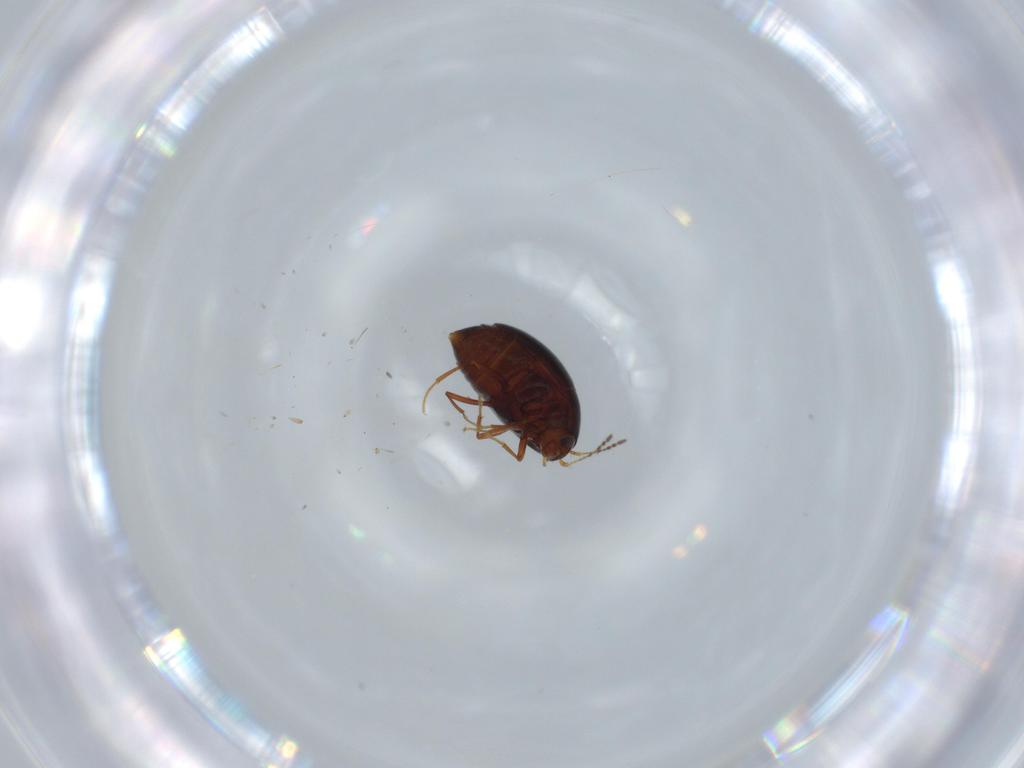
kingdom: Animalia
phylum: Arthropoda
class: Insecta
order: Coleoptera
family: Staphylinidae
